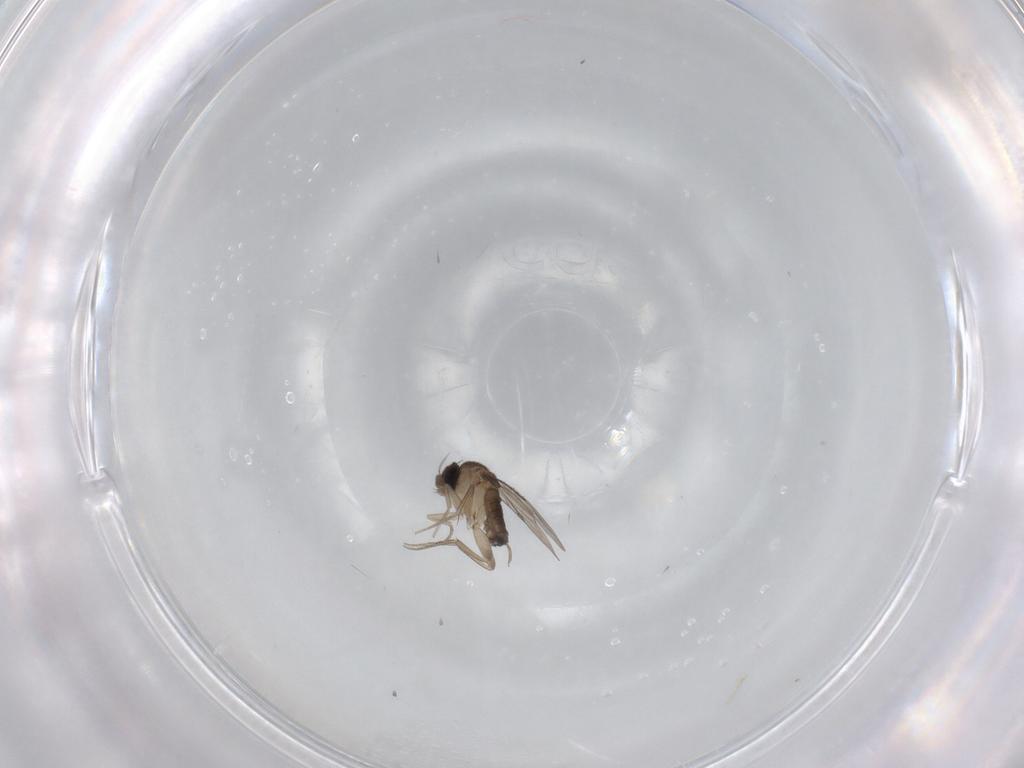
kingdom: Animalia
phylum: Arthropoda
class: Insecta
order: Diptera
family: Phoridae
